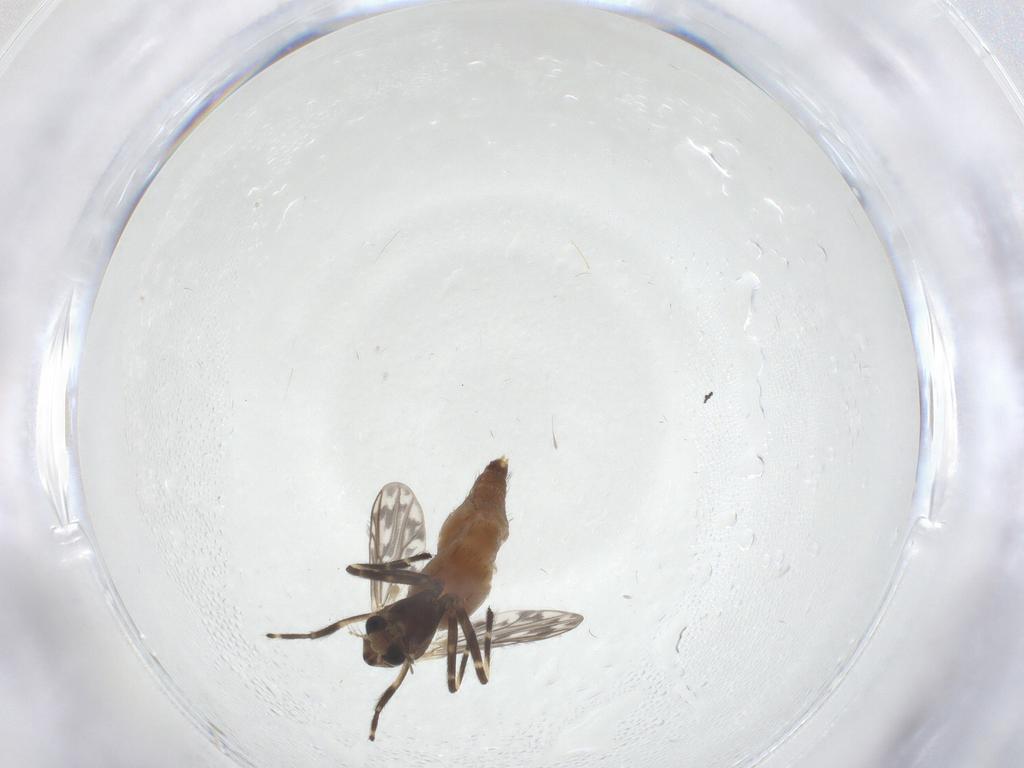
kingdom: Animalia
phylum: Arthropoda
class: Insecta
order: Diptera
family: Chironomidae
